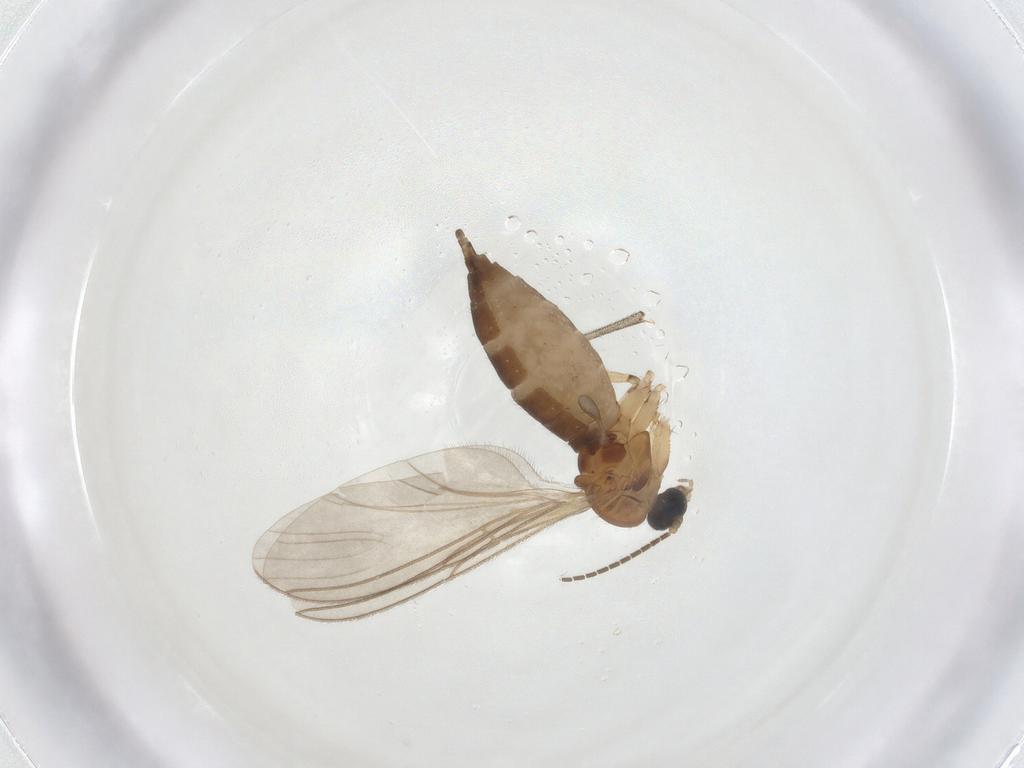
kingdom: Animalia
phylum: Arthropoda
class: Insecta
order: Diptera
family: Sciaridae
